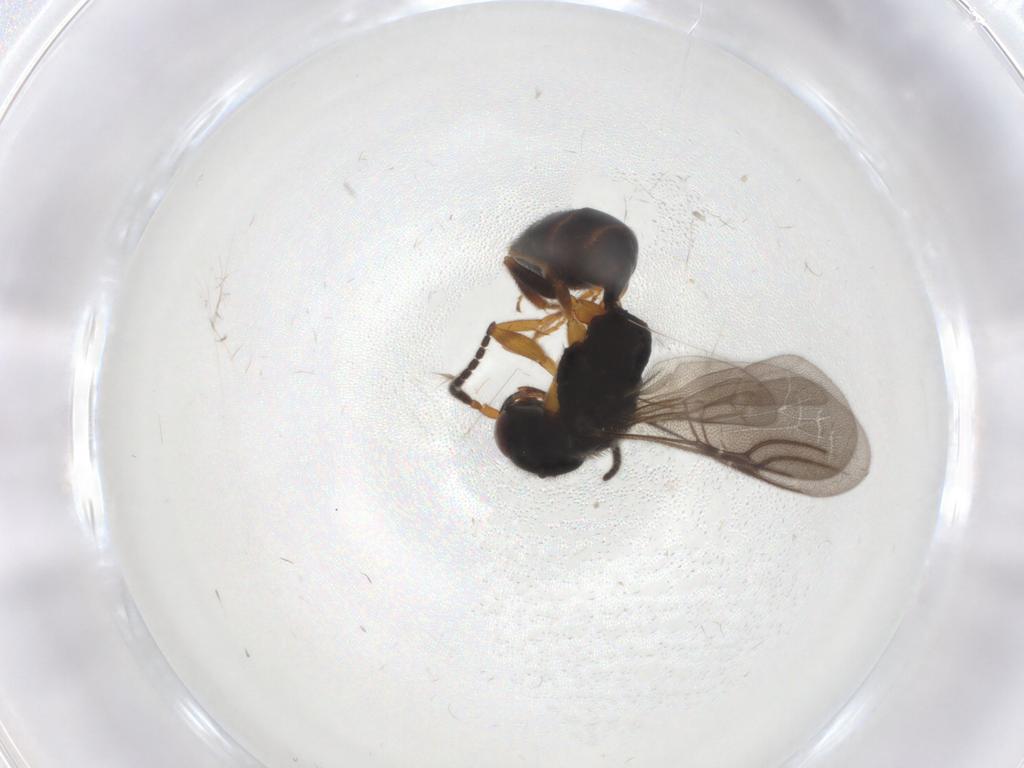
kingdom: Animalia
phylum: Arthropoda
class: Insecta
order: Hymenoptera
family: Bethylidae
